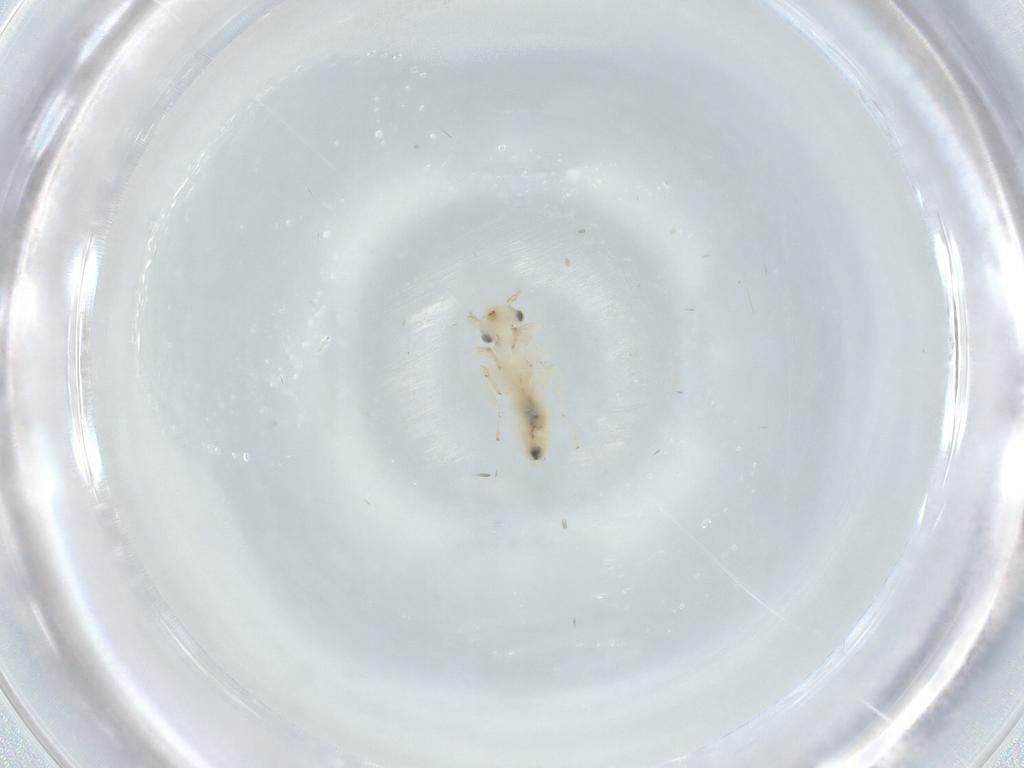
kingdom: Animalia
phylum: Arthropoda
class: Insecta
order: Psocodea
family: Lepidopsocidae
